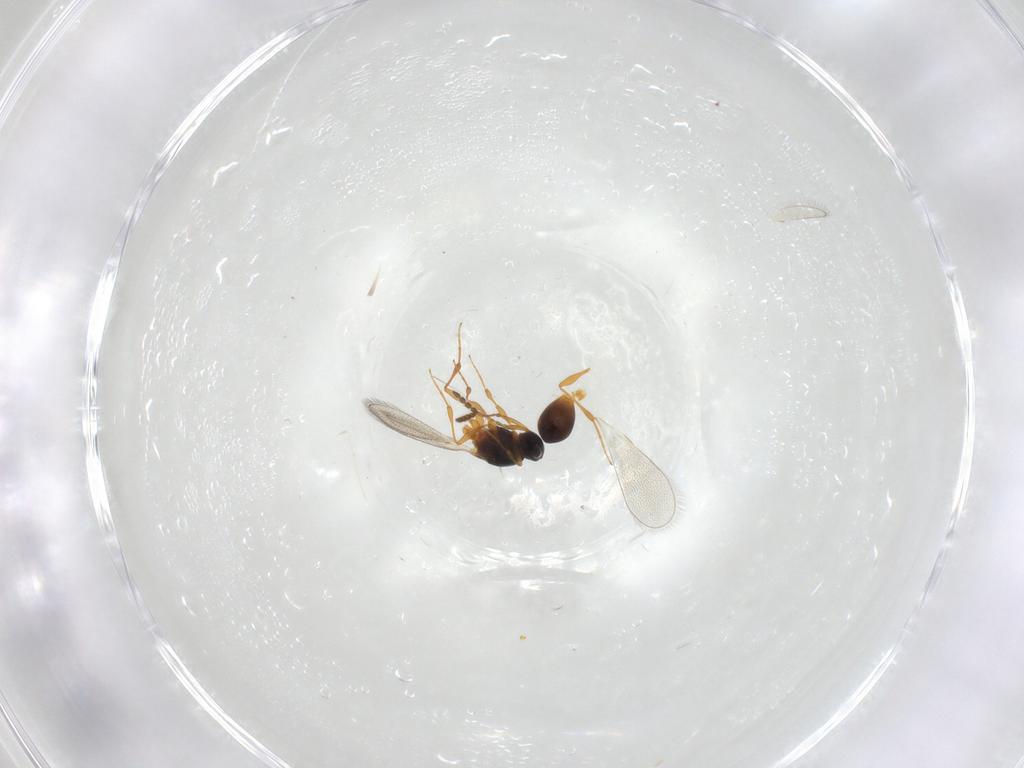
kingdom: Animalia
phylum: Arthropoda
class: Insecta
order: Hymenoptera
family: Platygastridae
